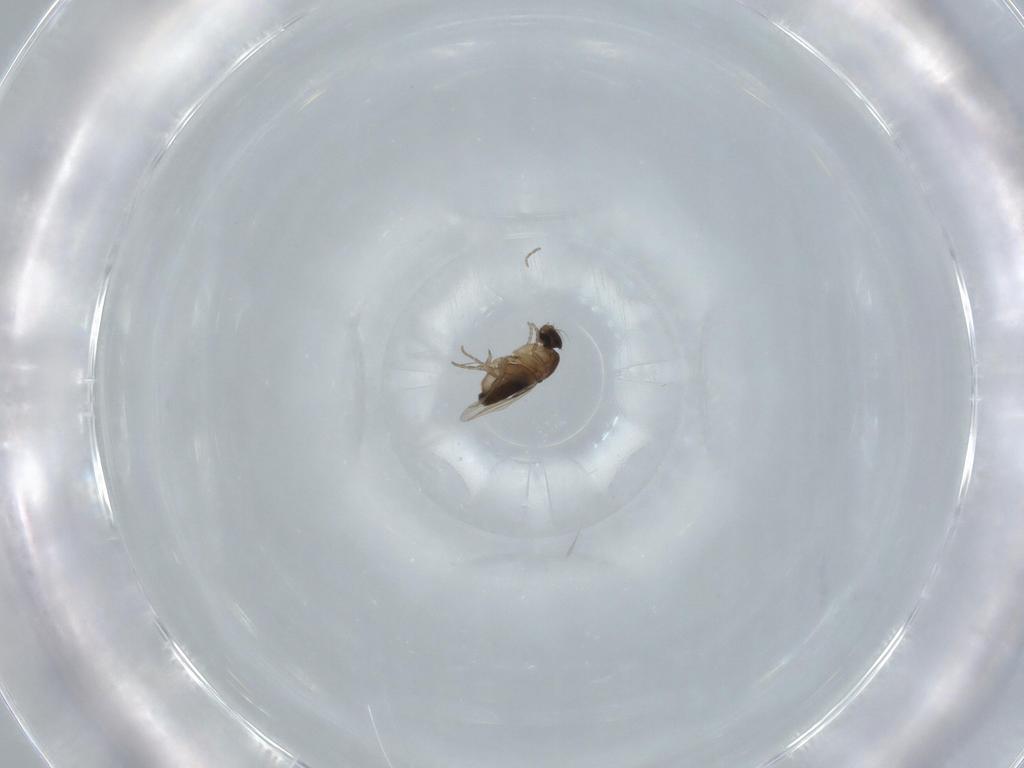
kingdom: Animalia
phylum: Arthropoda
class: Insecta
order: Diptera
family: Phoridae
